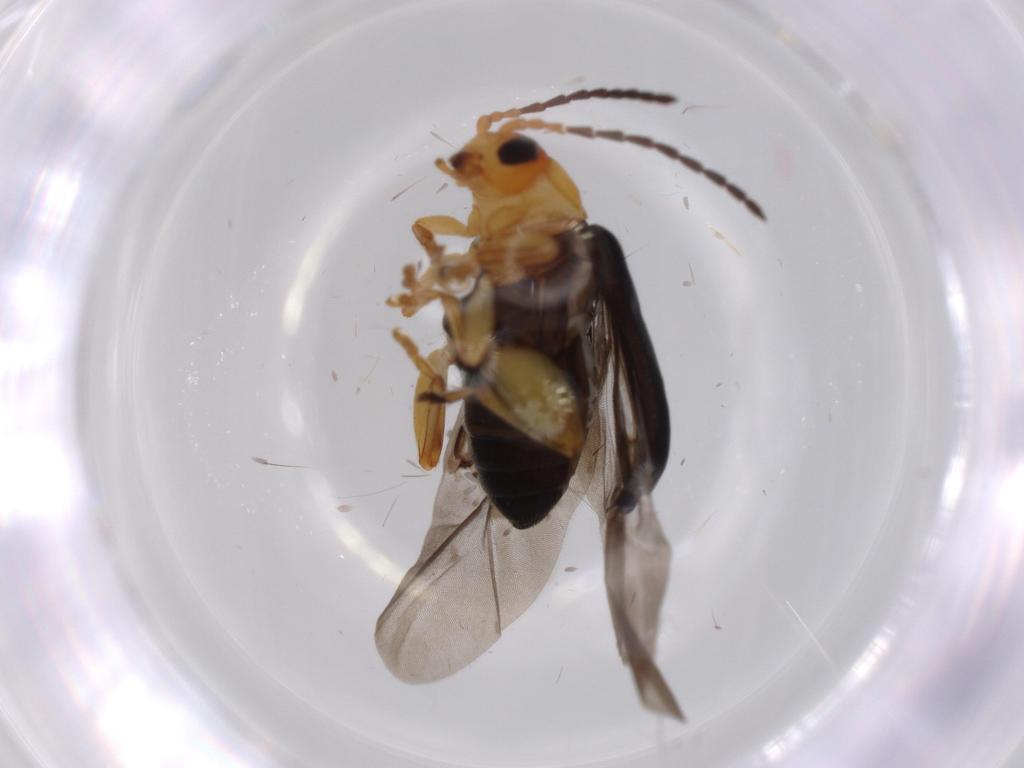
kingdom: Animalia
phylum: Arthropoda
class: Insecta
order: Coleoptera
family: Chrysomelidae
